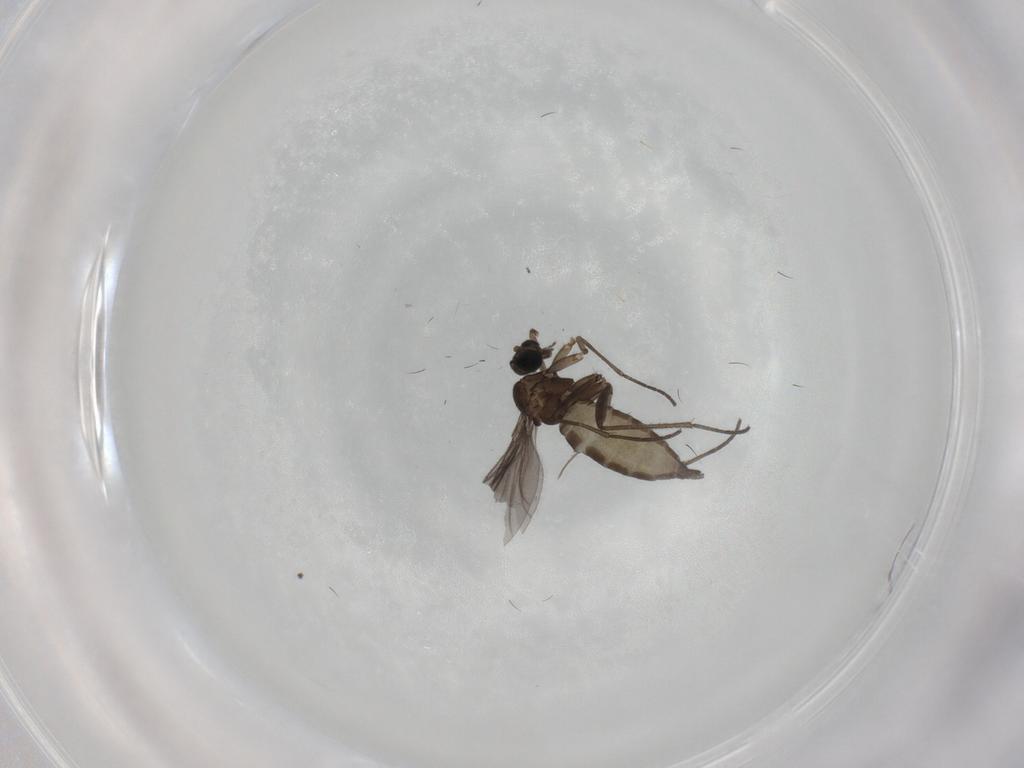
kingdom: Animalia
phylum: Arthropoda
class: Insecta
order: Diptera
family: Sciaridae
